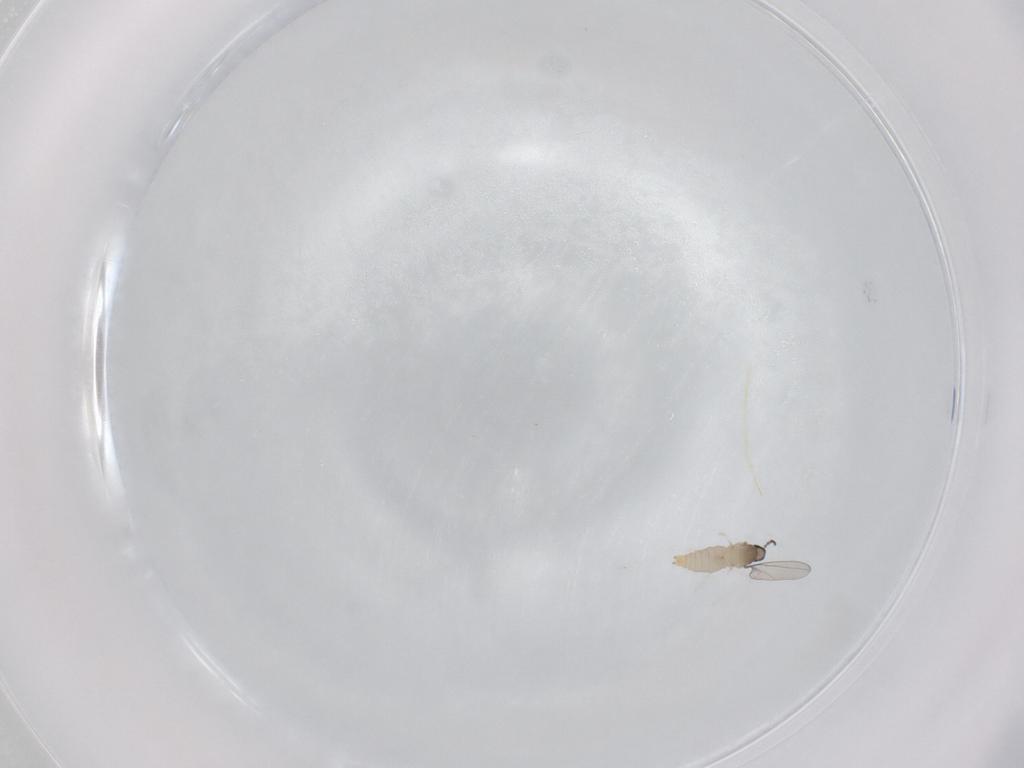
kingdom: Animalia
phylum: Arthropoda
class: Insecta
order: Diptera
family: Cecidomyiidae
